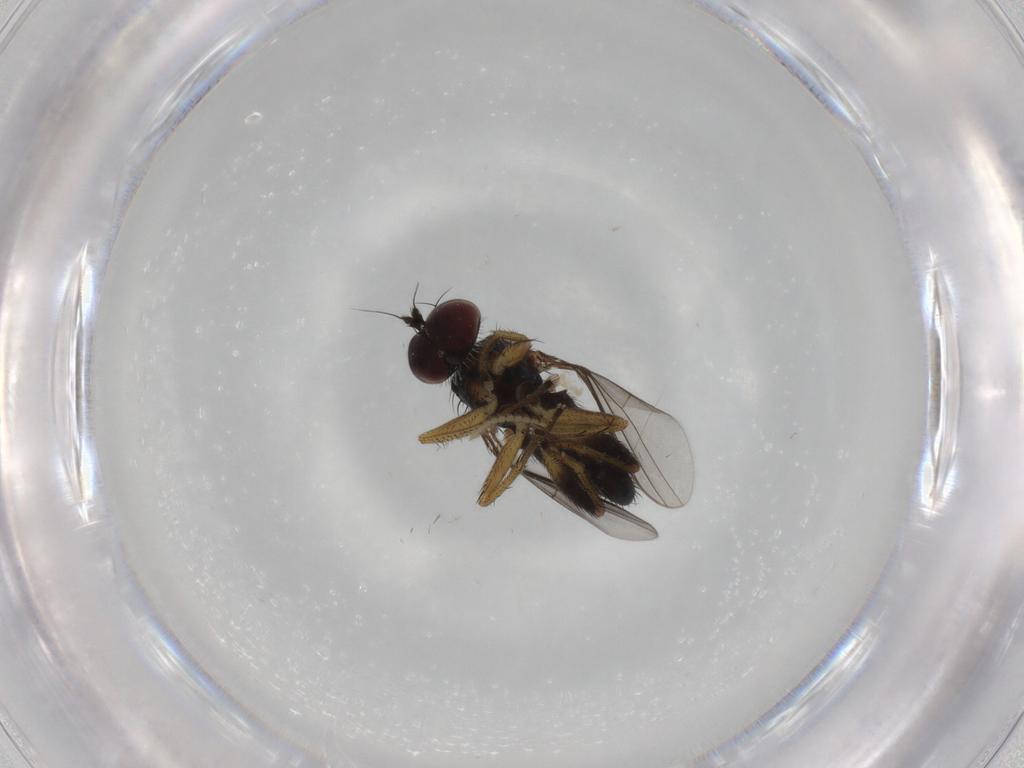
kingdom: Animalia
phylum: Arthropoda
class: Insecta
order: Diptera
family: Dolichopodidae
